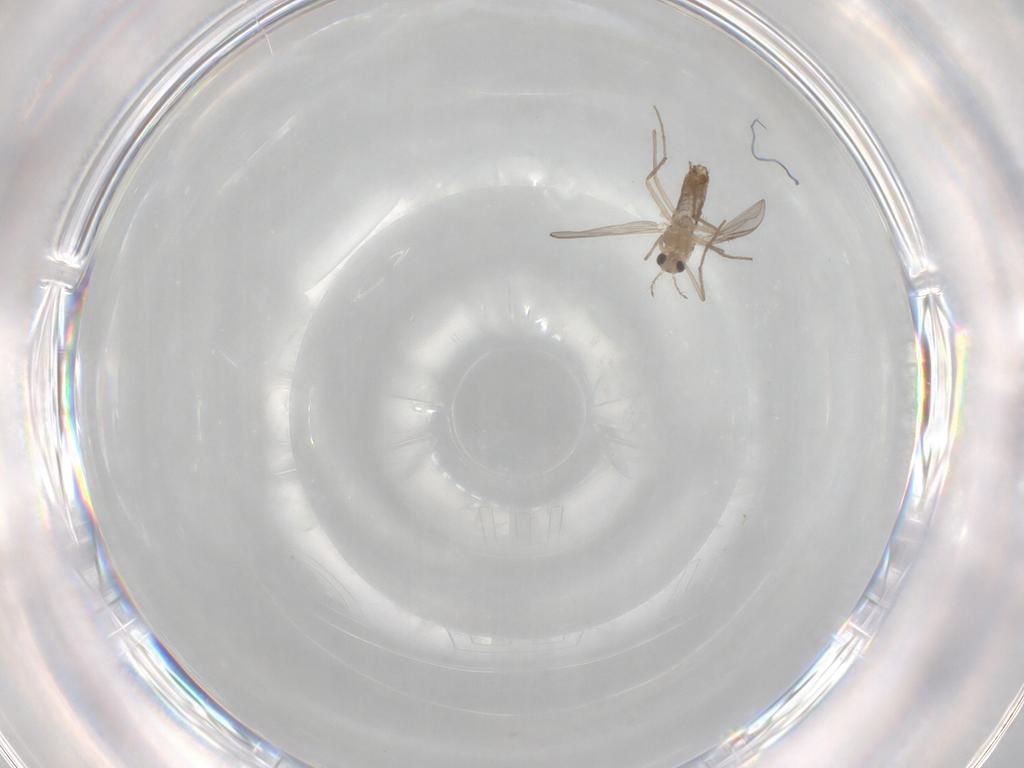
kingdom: Animalia
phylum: Arthropoda
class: Insecta
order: Diptera
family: Chironomidae
